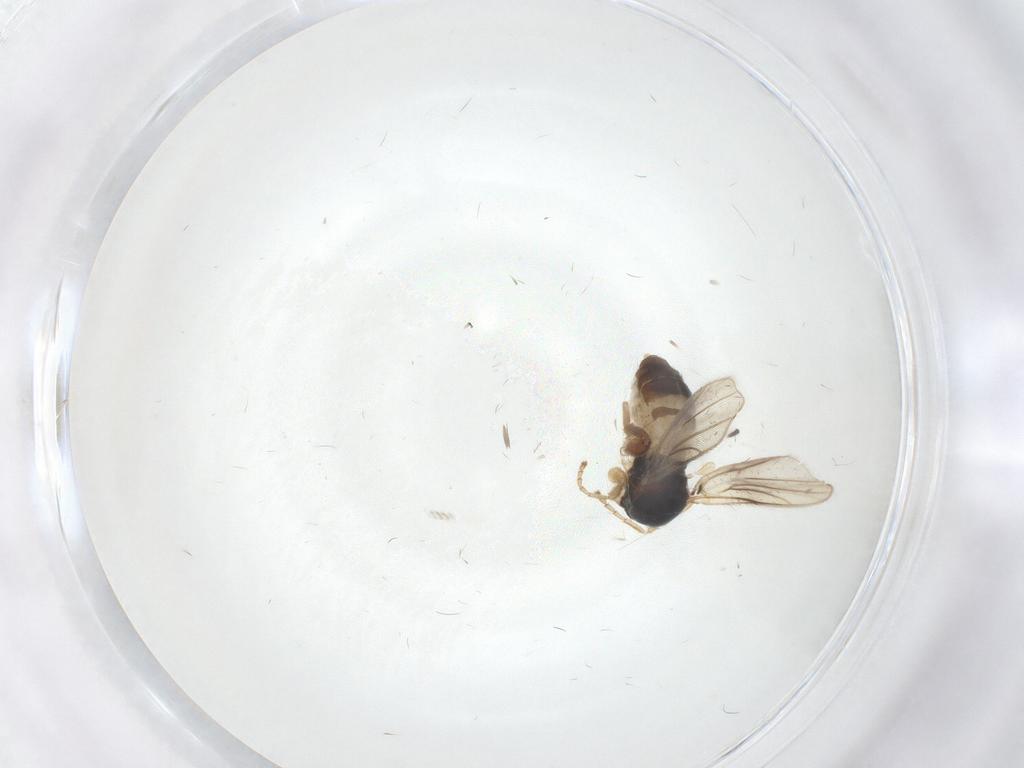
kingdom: Animalia
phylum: Arthropoda
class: Insecta
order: Diptera
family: Hybotidae
